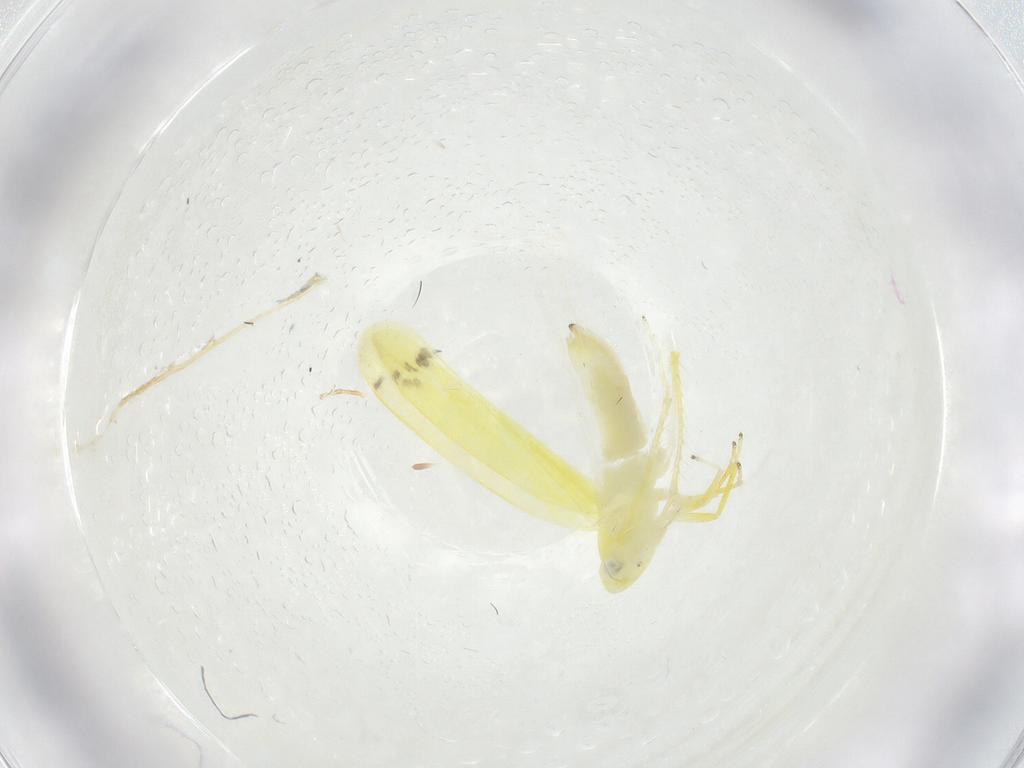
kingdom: Animalia
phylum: Arthropoda
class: Insecta
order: Hemiptera
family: Cicadellidae
